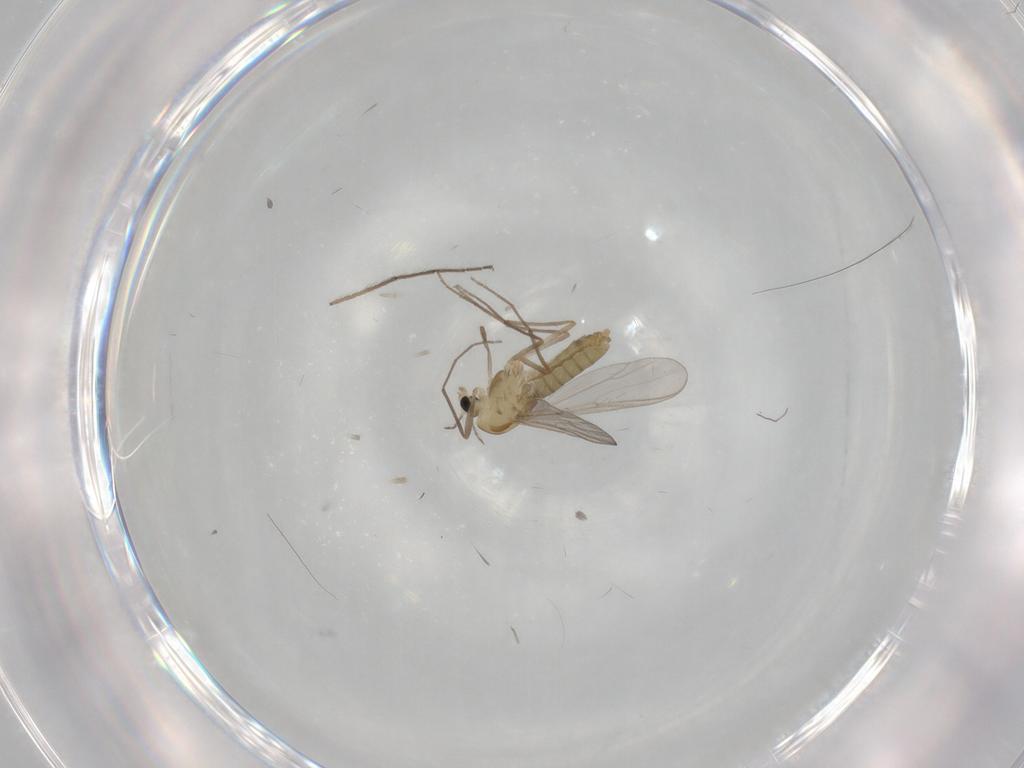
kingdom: Animalia
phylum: Arthropoda
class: Insecta
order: Diptera
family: Chironomidae
